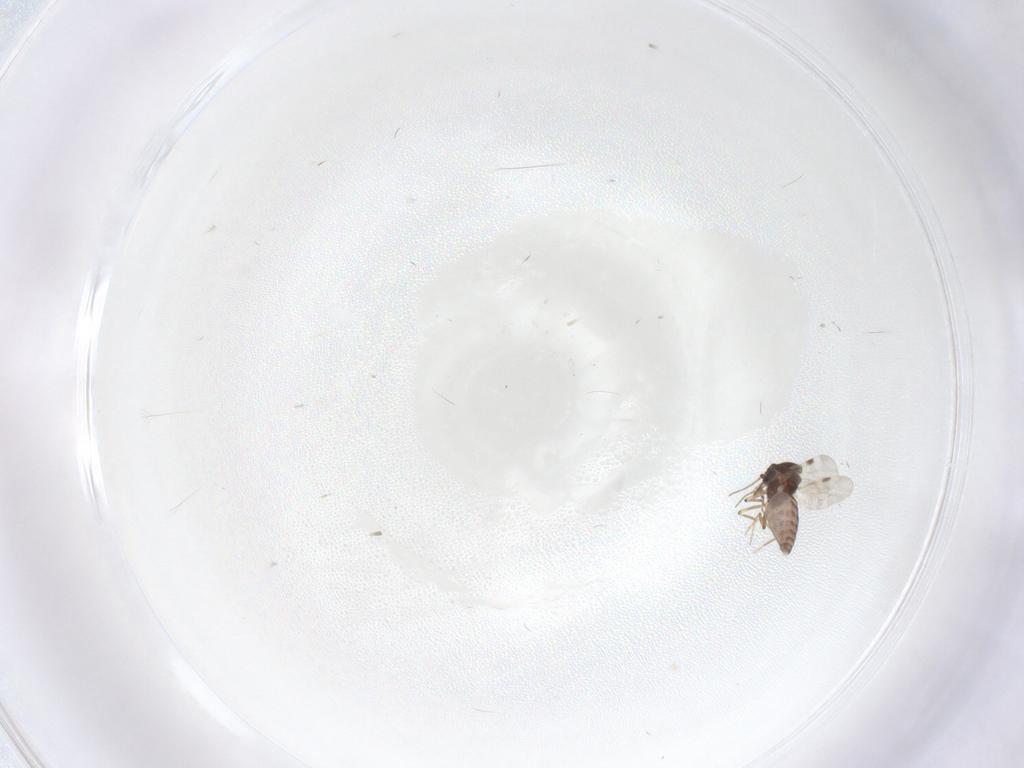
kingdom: Animalia
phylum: Arthropoda
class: Insecta
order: Diptera
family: Cecidomyiidae
